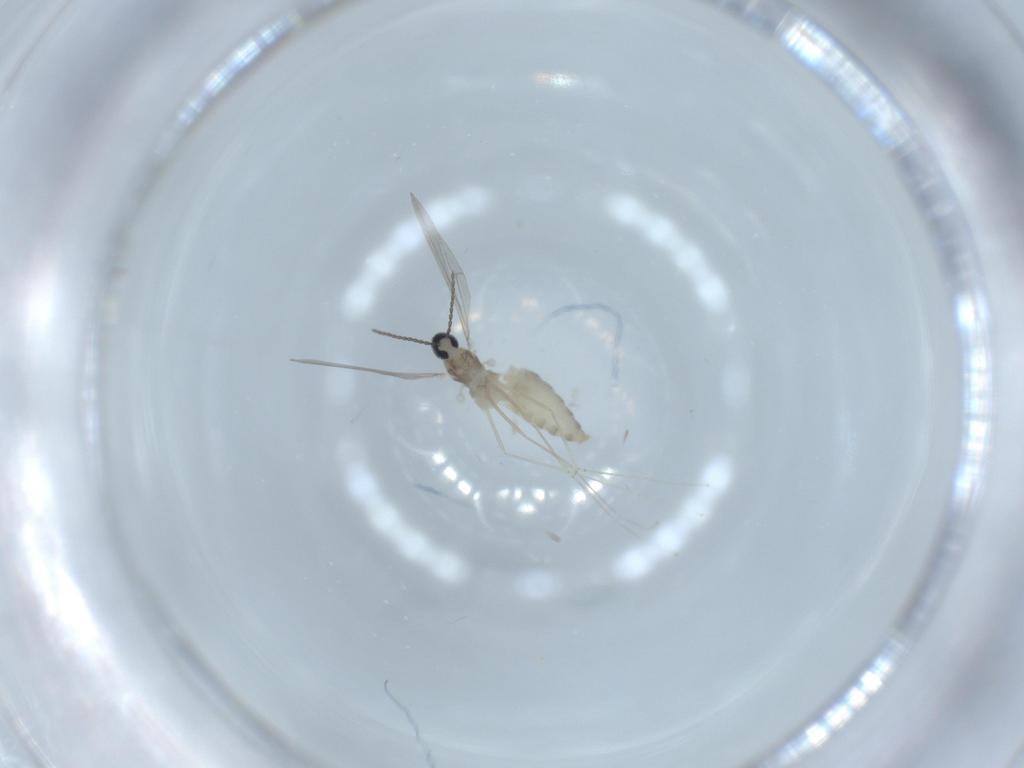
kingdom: Animalia
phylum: Arthropoda
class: Insecta
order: Diptera
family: Cecidomyiidae
